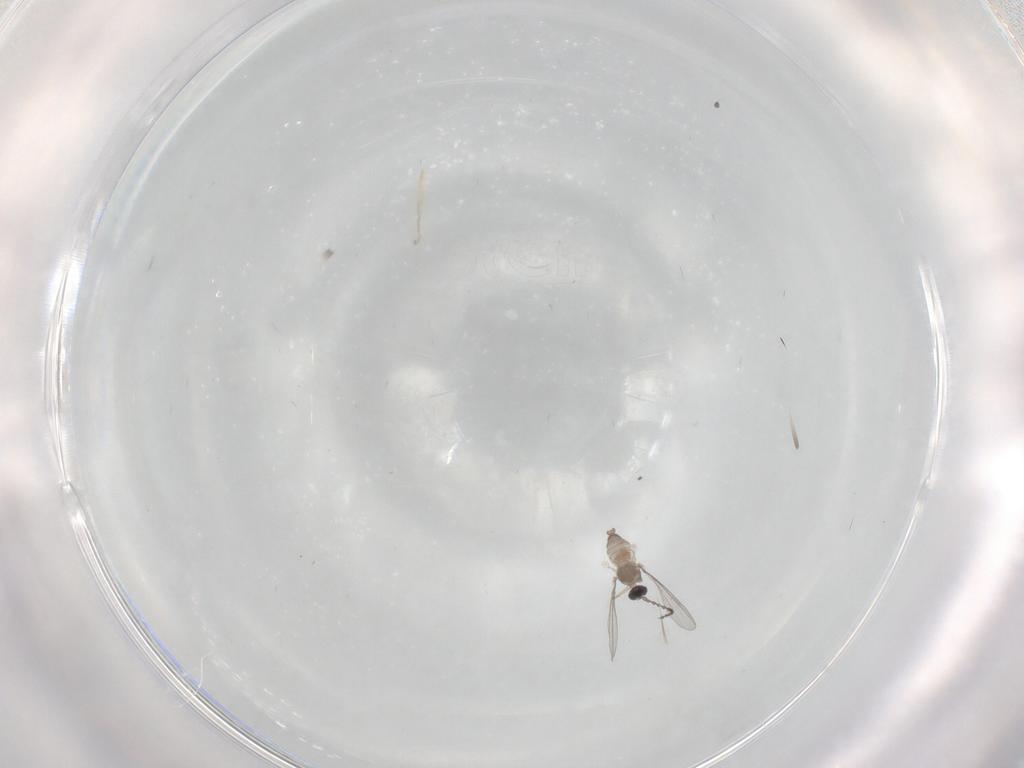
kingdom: Animalia
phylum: Arthropoda
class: Insecta
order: Diptera
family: Cecidomyiidae
